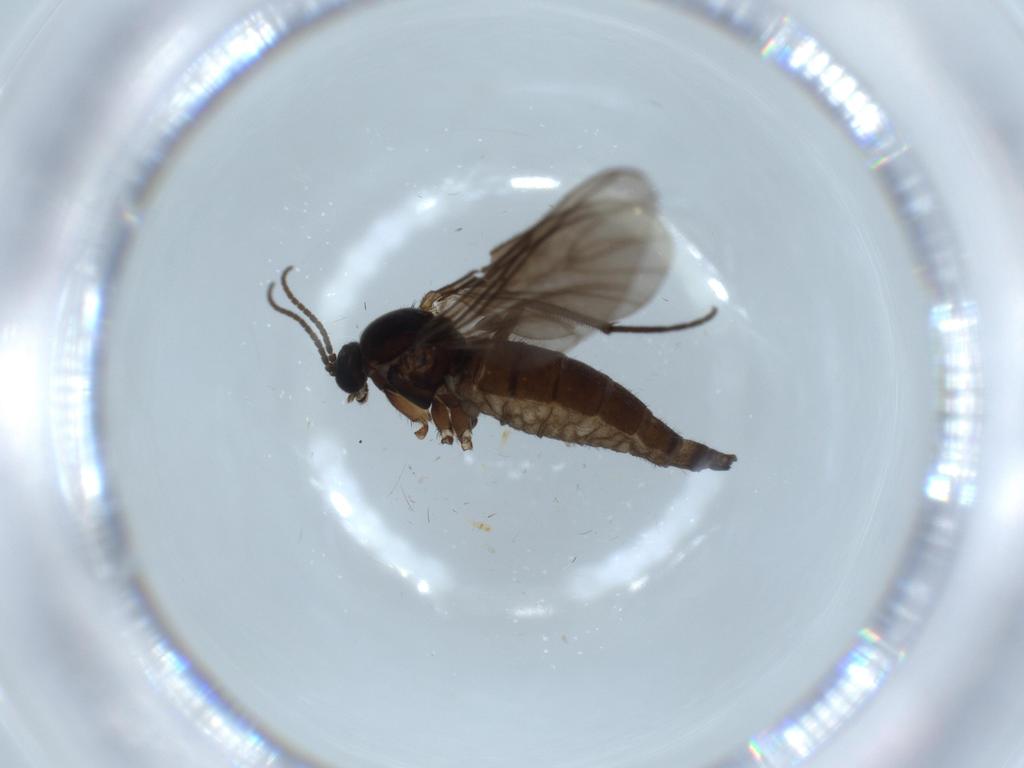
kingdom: Animalia
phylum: Arthropoda
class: Insecta
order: Diptera
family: Sciaridae
